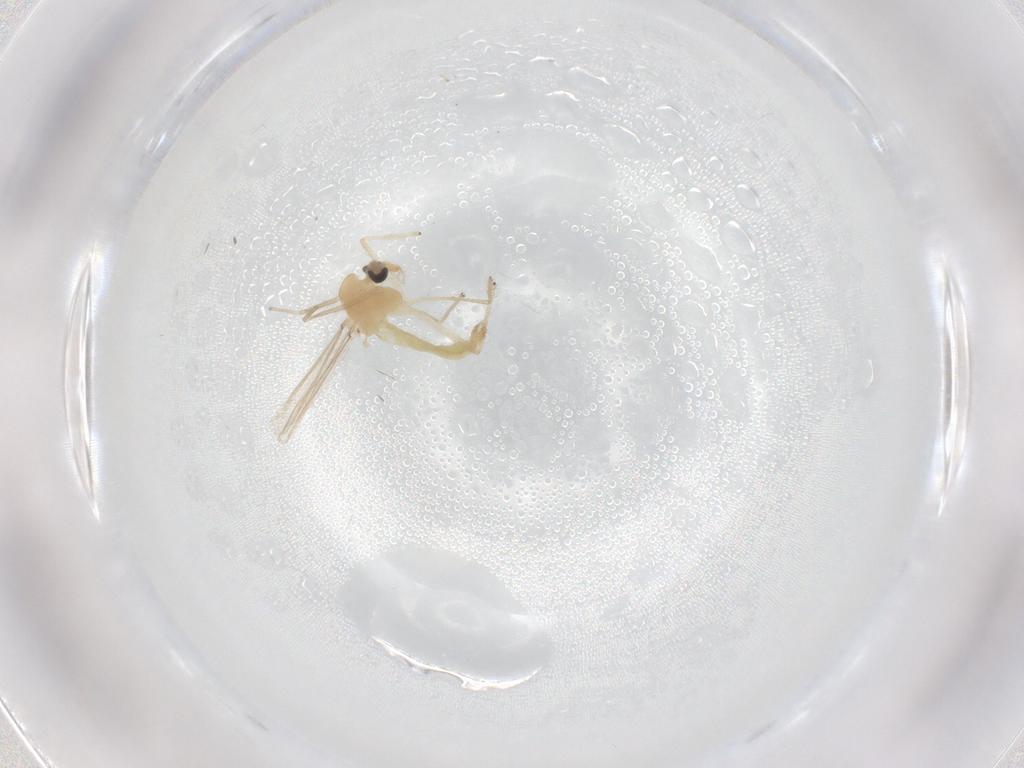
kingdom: Animalia
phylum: Arthropoda
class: Insecta
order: Diptera
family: Chironomidae
